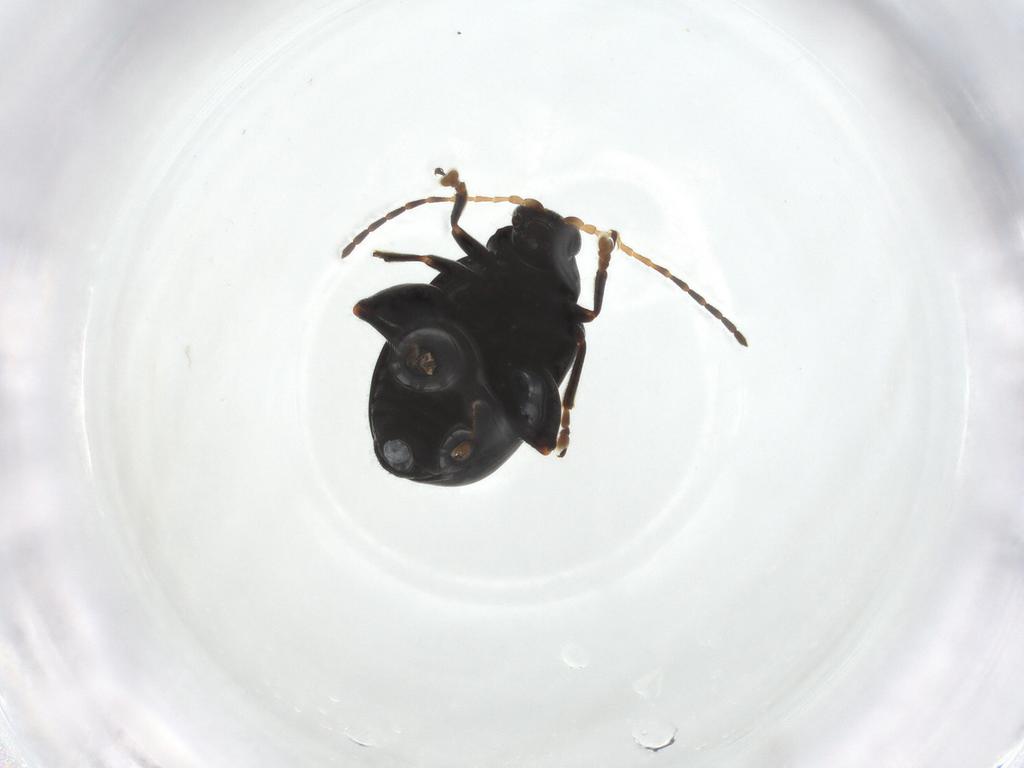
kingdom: Animalia
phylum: Arthropoda
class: Insecta
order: Coleoptera
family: Chrysomelidae
